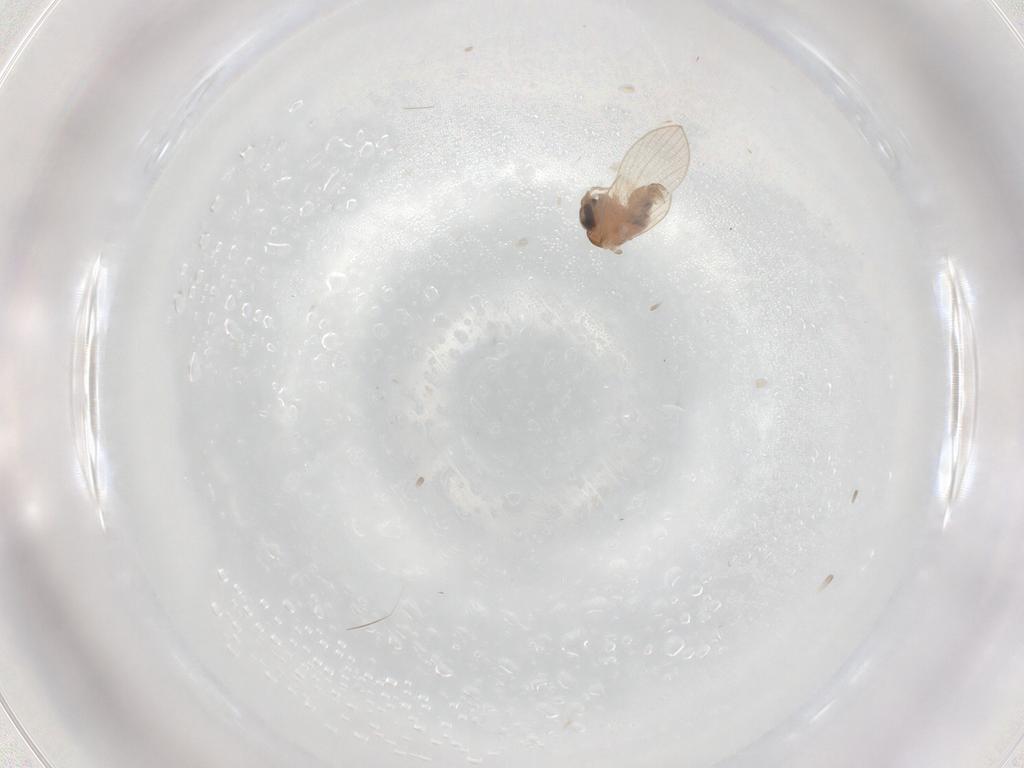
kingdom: Animalia
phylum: Arthropoda
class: Insecta
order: Diptera
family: Psychodidae
